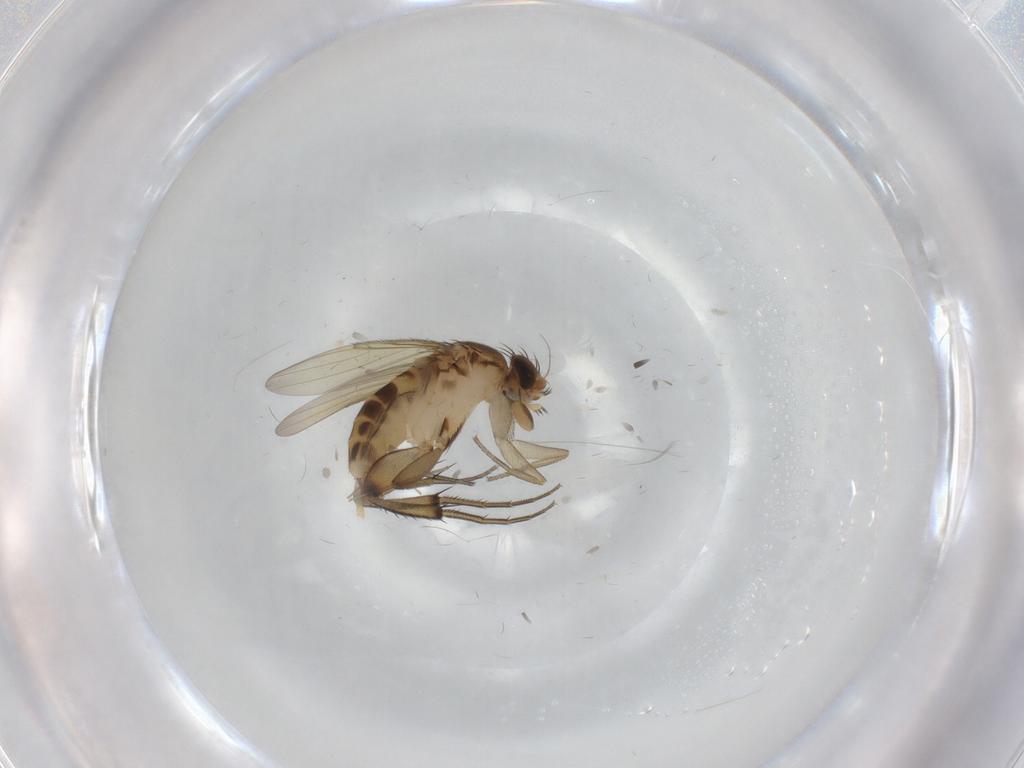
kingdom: Animalia
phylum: Arthropoda
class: Insecta
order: Diptera
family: Phoridae
